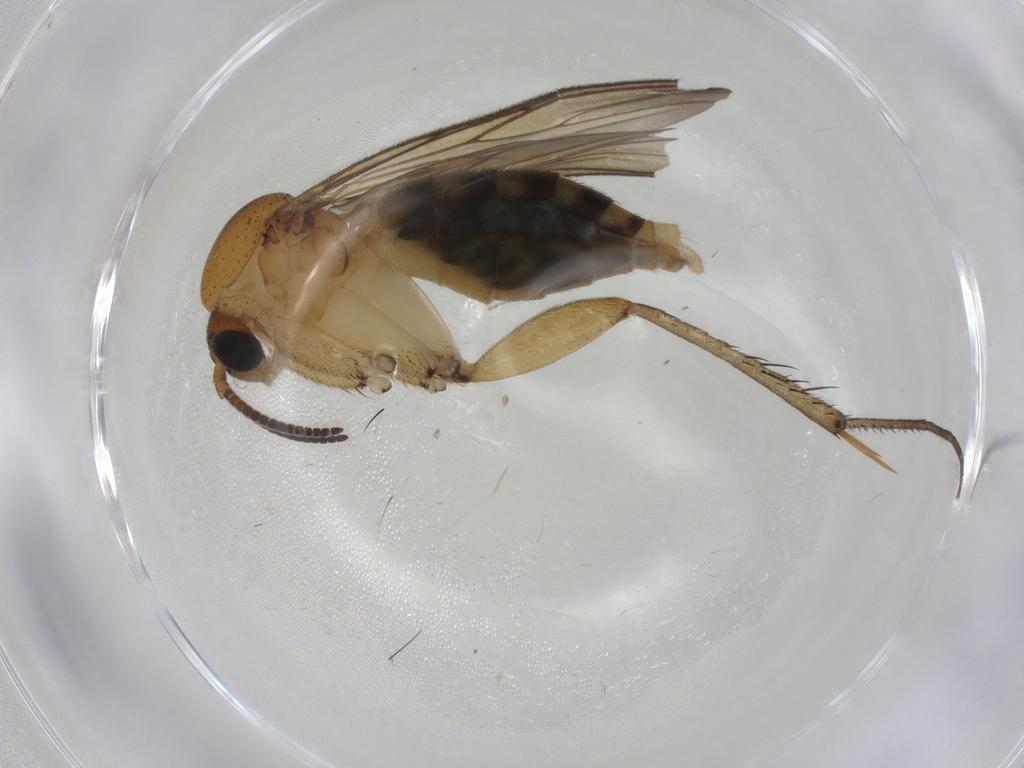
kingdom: Animalia
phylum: Arthropoda
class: Insecta
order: Diptera
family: Mycetophilidae
